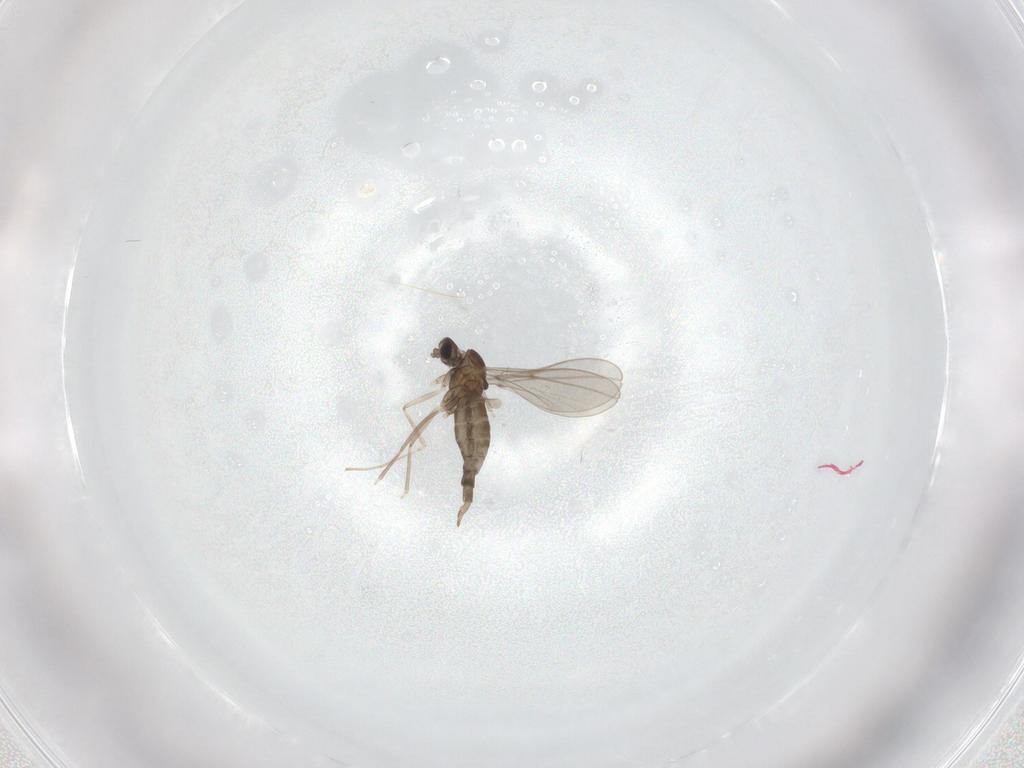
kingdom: Animalia
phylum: Arthropoda
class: Insecta
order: Diptera
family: Cecidomyiidae
